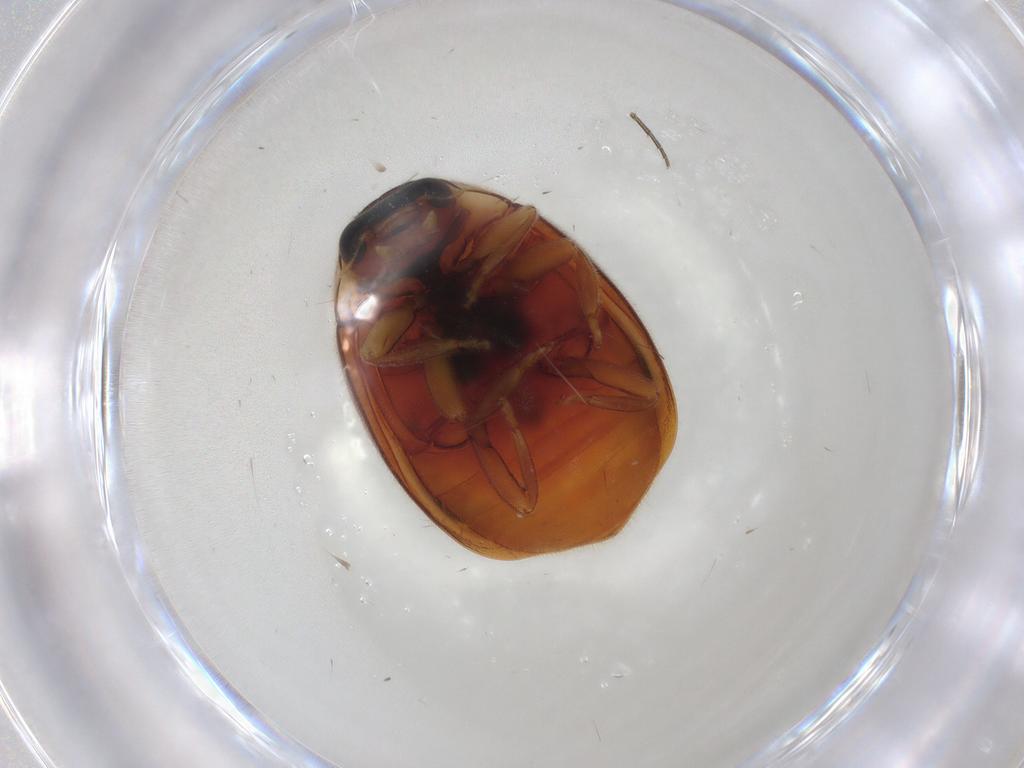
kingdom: Animalia
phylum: Arthropoda
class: Insecta
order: Coleoptera
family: Coccinellidae
